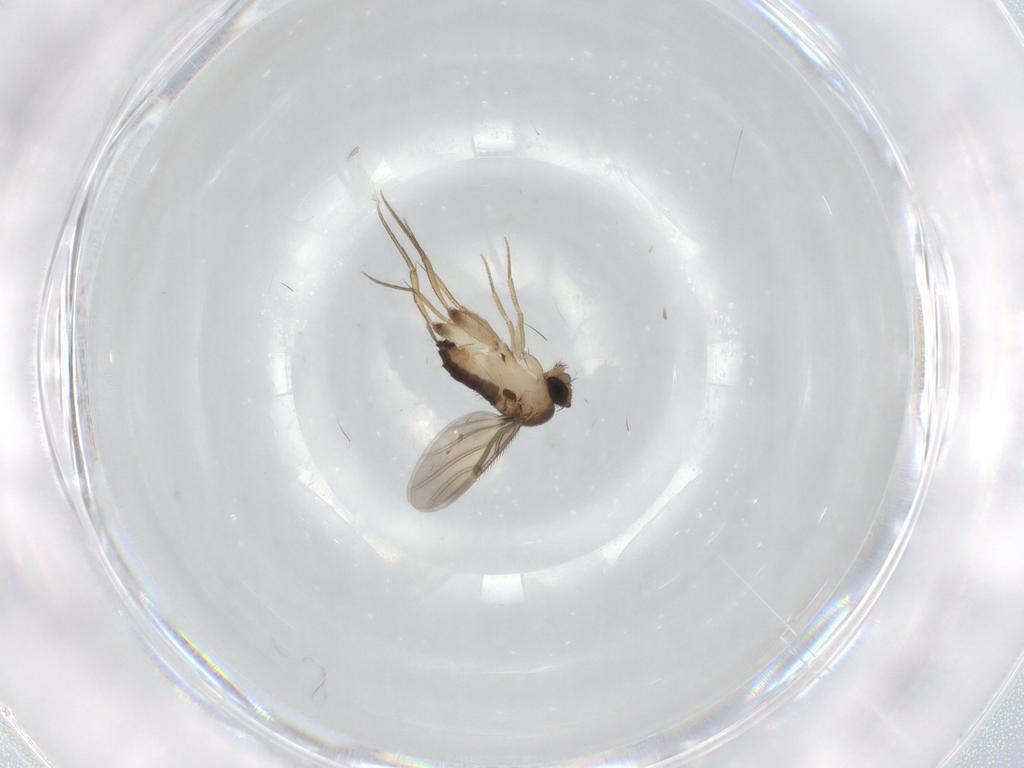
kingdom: Animalia
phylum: Arthropoda
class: Insecta
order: Diptera
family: Phoridae
